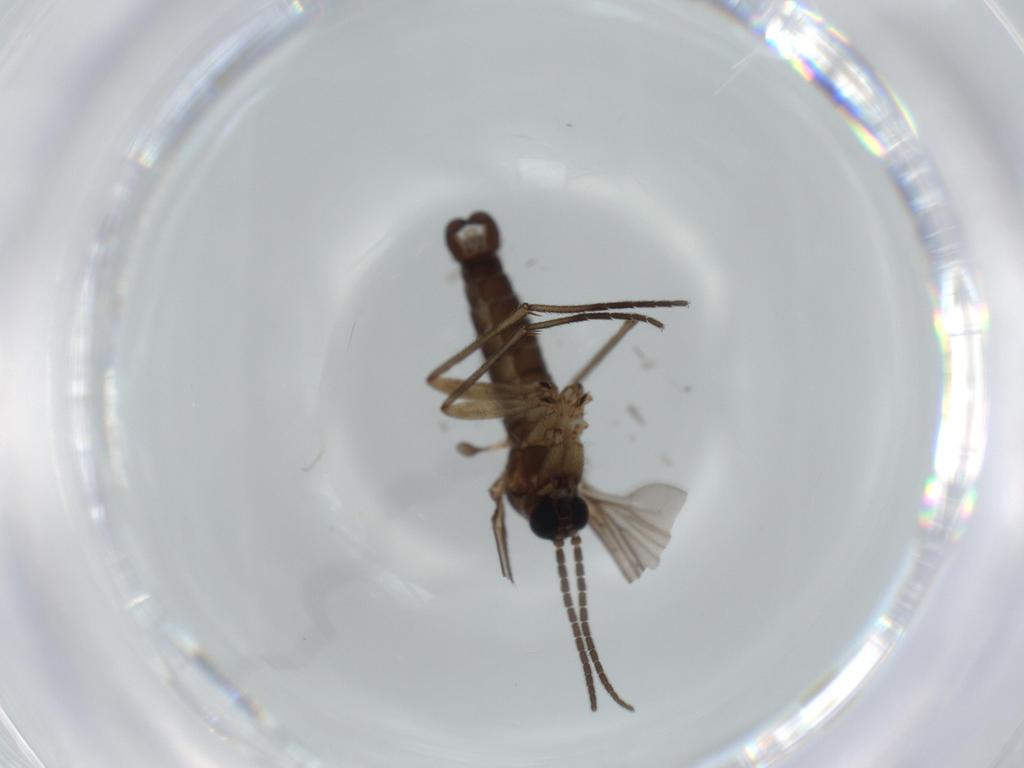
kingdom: Animalia
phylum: Arthropoda
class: Insecta
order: Diptera
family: Sciaridae
